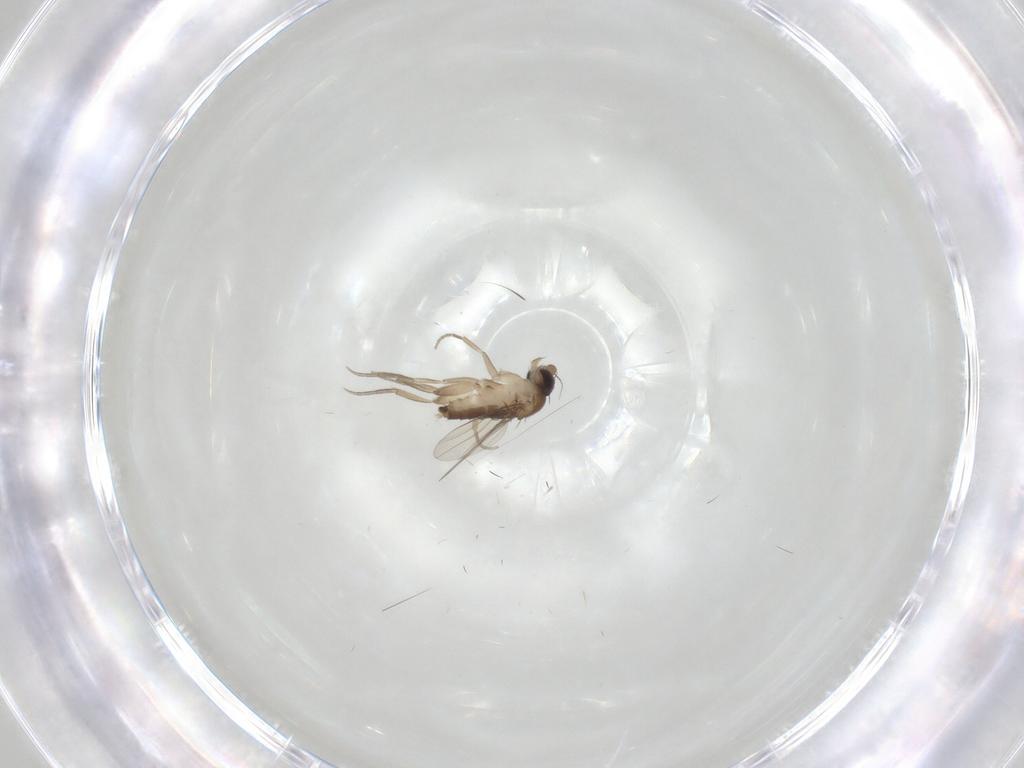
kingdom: Animalia
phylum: Arthropoda
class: Insecta
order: Diptera
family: Phoridae
